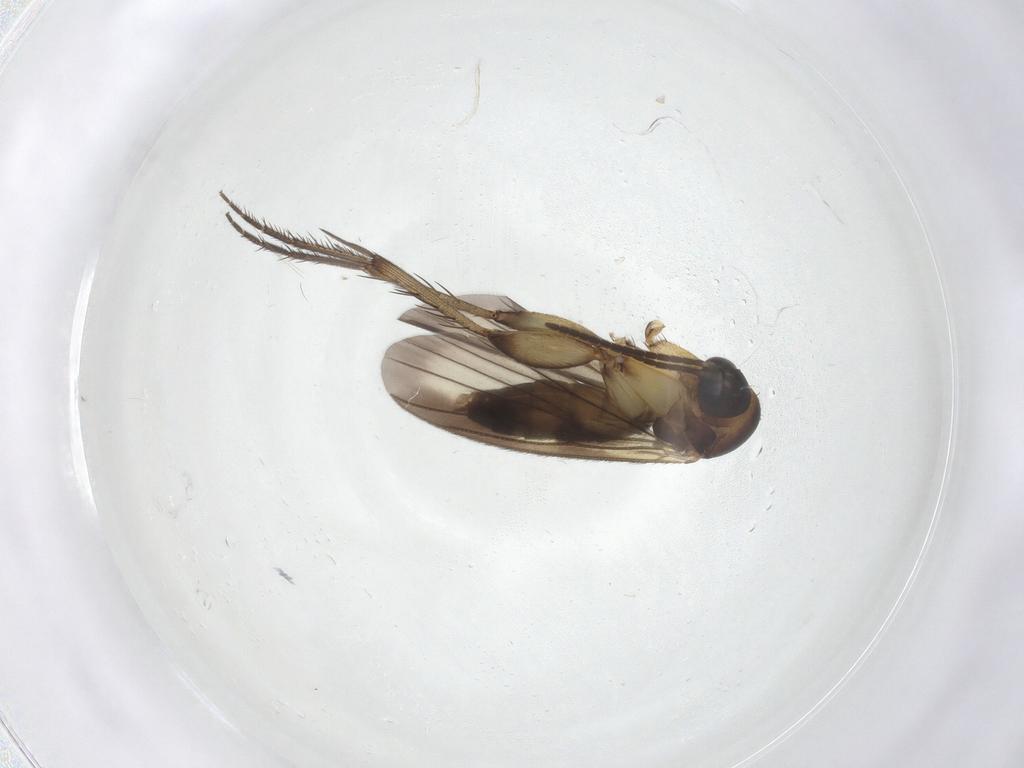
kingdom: Animalia
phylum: Arthropoda
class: Insecta
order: Diptera
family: Mycetophilidae
